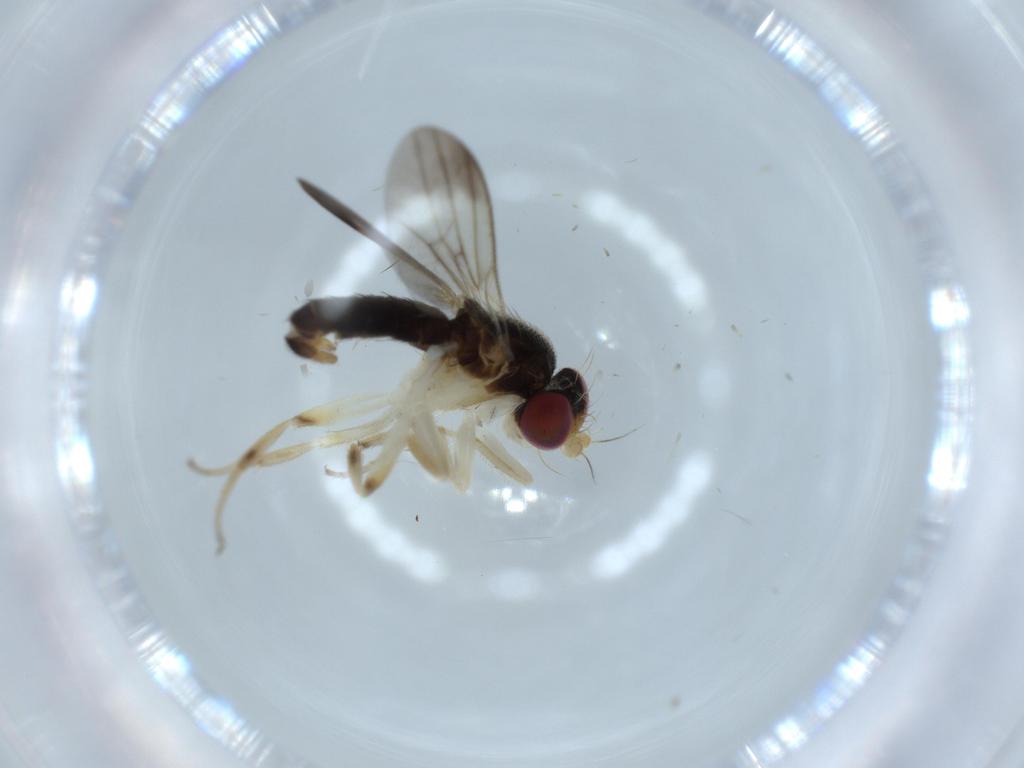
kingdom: Animalia
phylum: Arthropoda
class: Insecta
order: Diptera
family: Clusiidae
